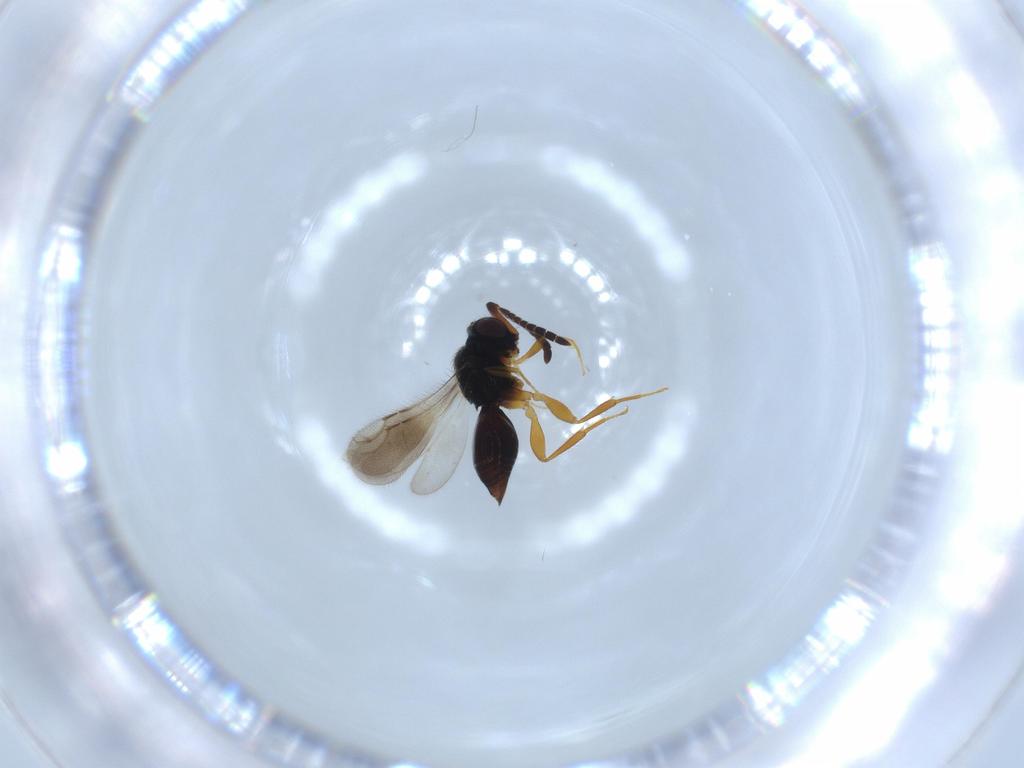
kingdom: Animalia
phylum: Arthropoda
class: Insecta
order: Hymenoptera
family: Ceraphronidae
